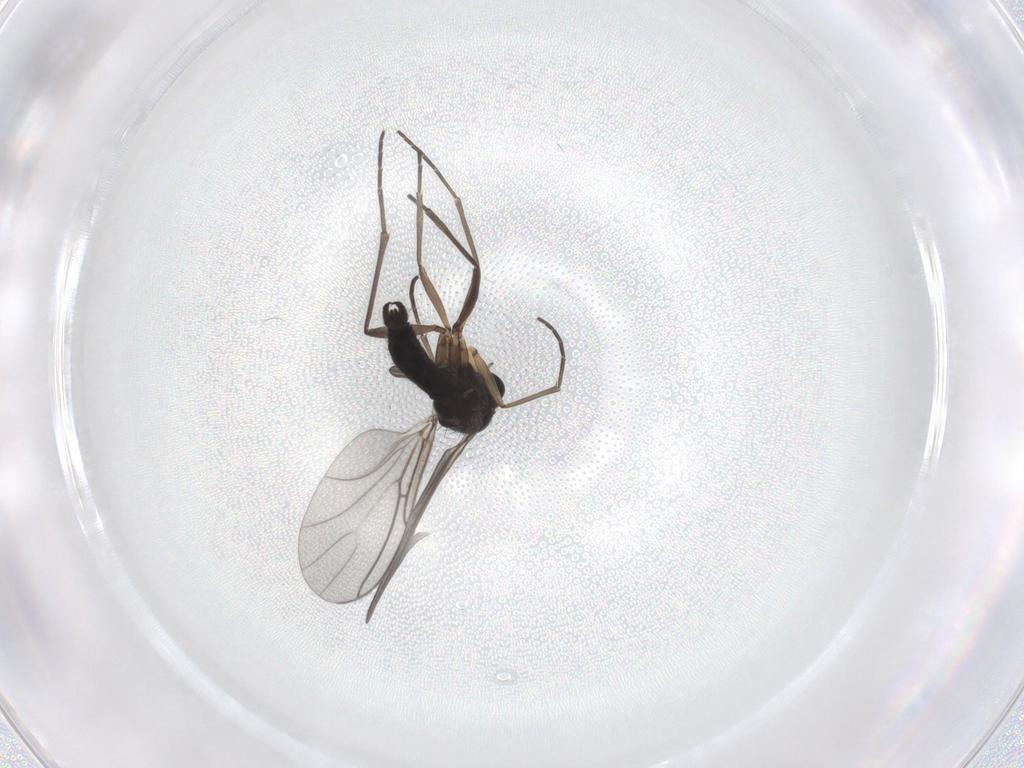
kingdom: Animalia
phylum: Arthropoda
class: Insecta
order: Diptera
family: Sciaridae
